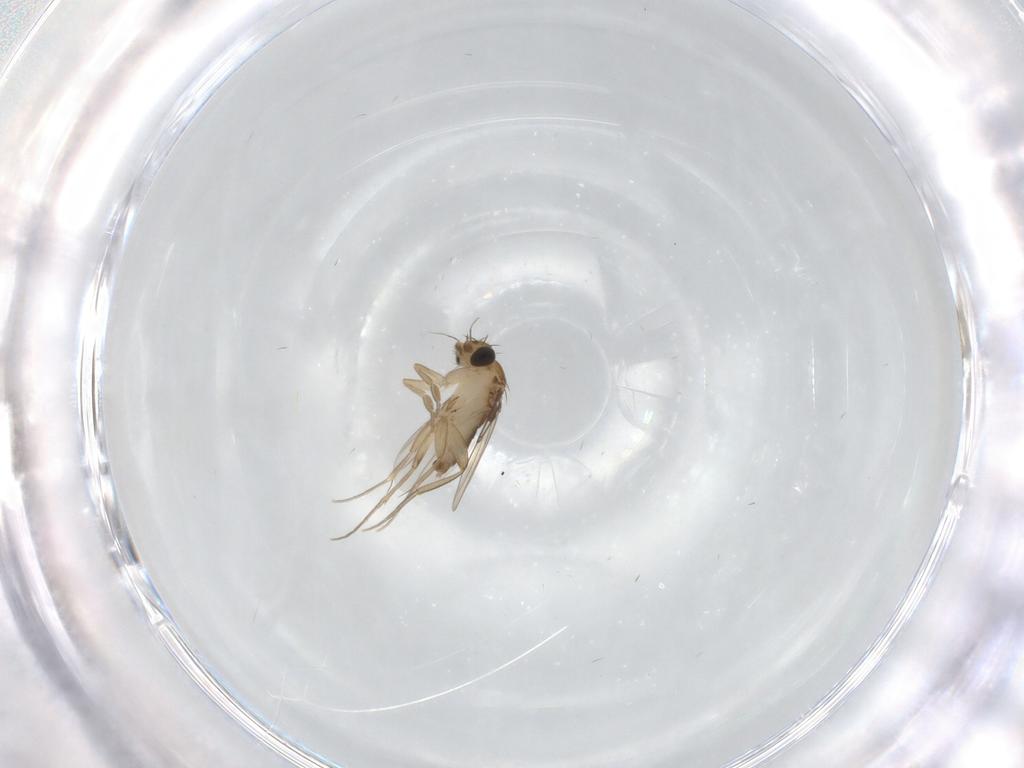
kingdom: Animalia
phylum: Arthropoda
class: Insecta
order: Diptera
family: Phoridae
